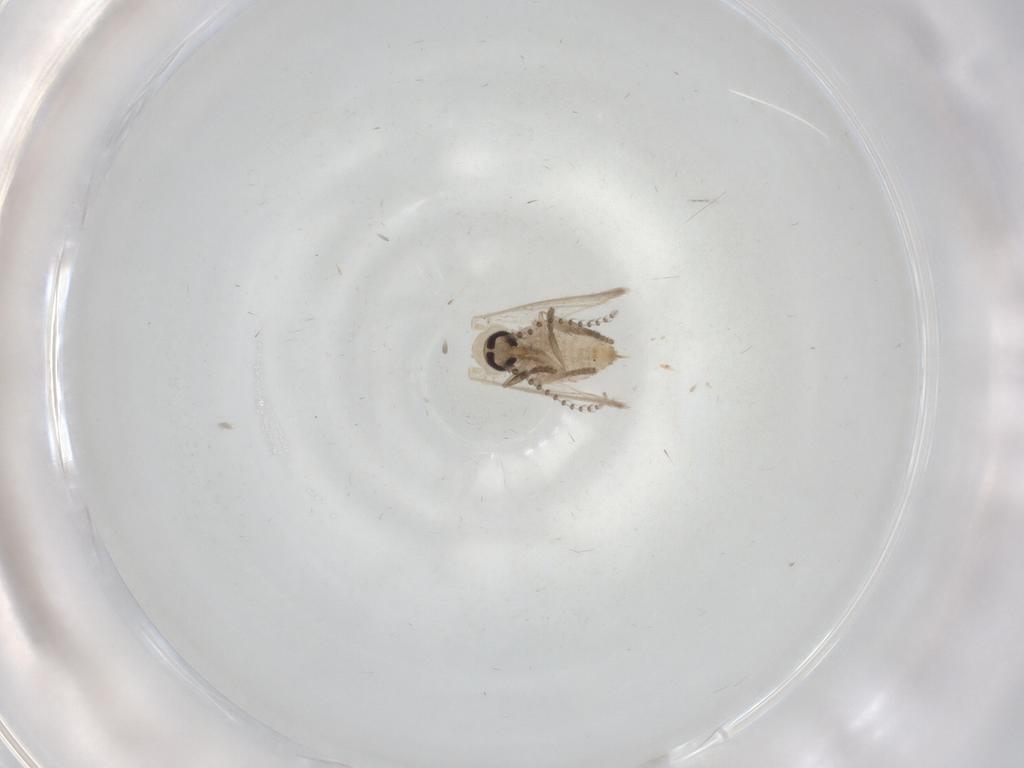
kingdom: Animalia
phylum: Arthropoda
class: Insecta
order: Diptera
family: Psychodidae
